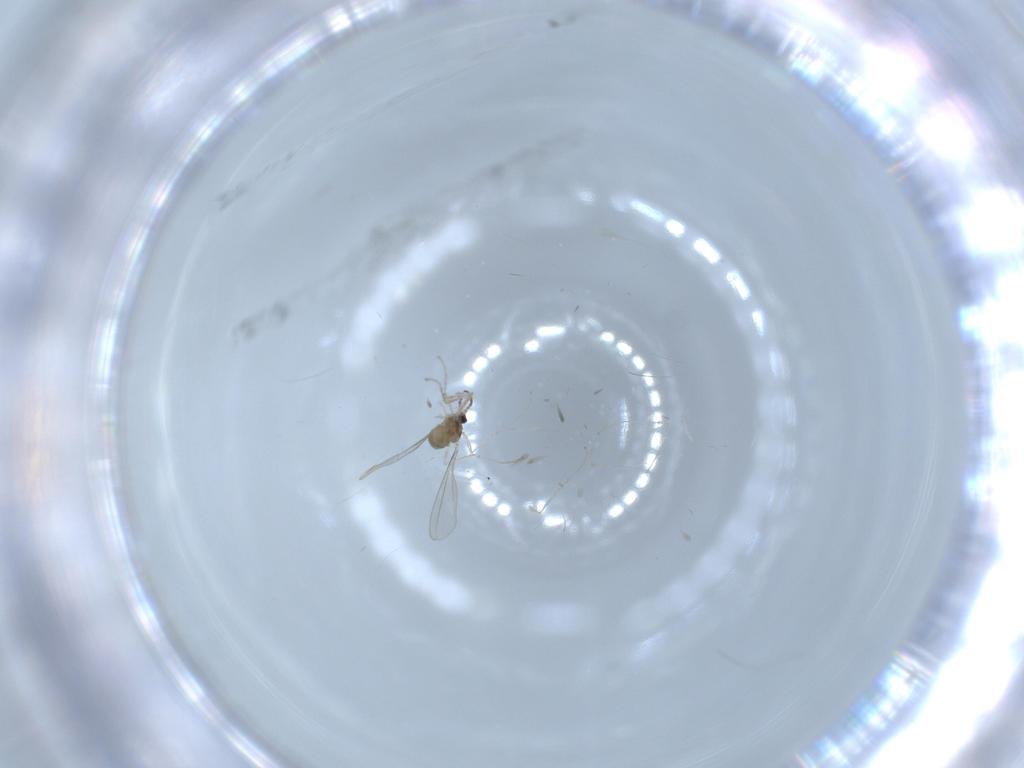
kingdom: Animalia
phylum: Arthropoda
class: Insecta
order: Diptera
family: Cecidomyiidae
